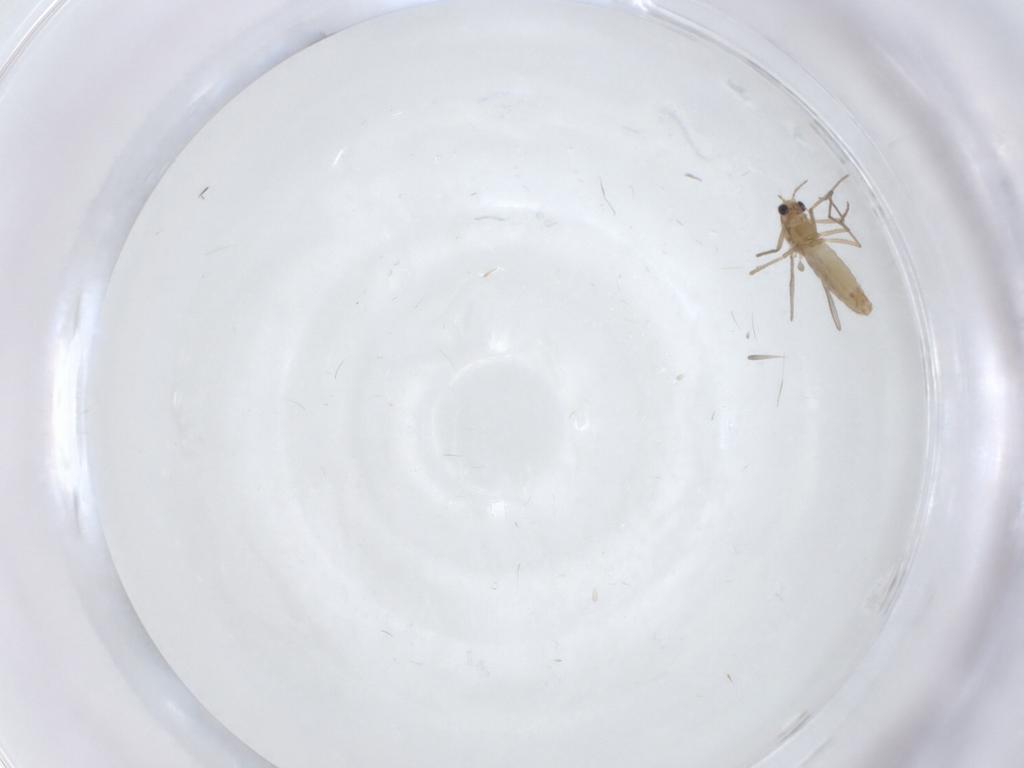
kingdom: Animalia
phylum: Arthropoda
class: Insecta
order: Diptera
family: Chironomidae
